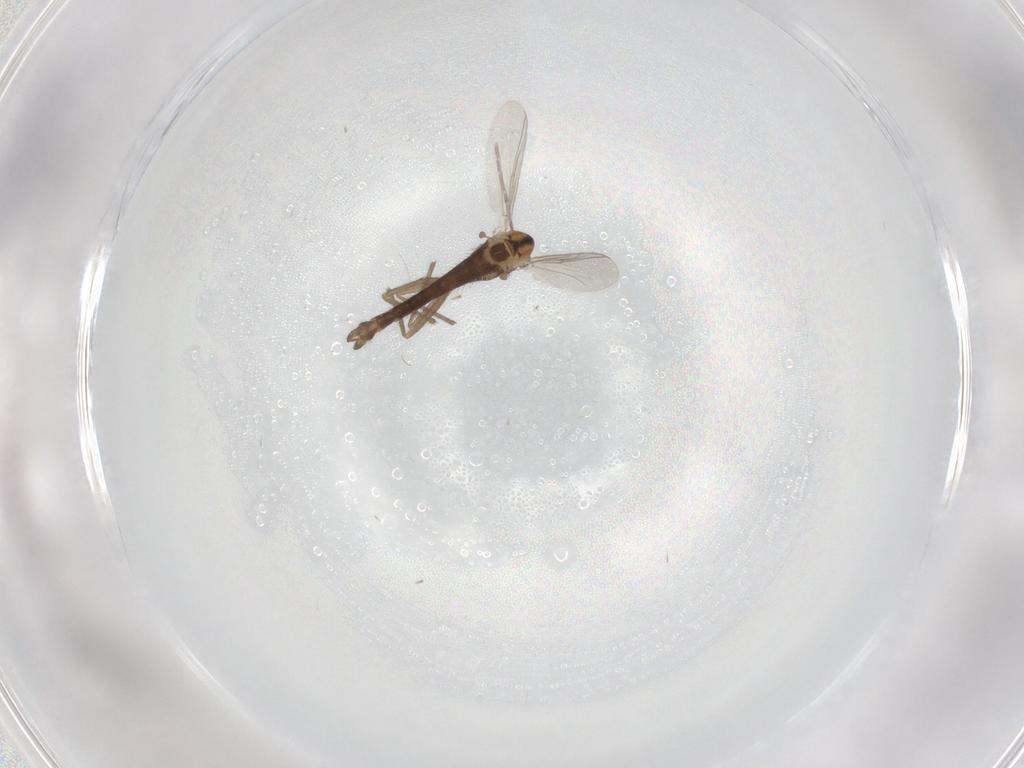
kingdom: Animalia
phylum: Arthropoda
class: Insecta
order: Diptera
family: Chironomidae
